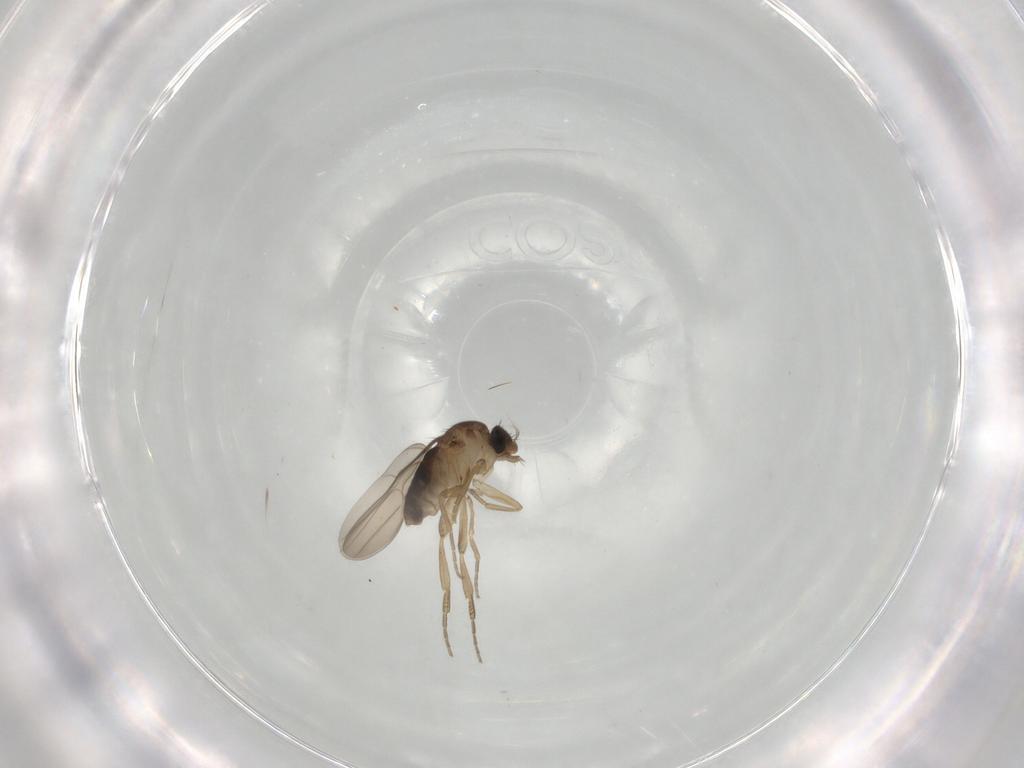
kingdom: Animalia
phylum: Arthropoda
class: Insecta
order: Diptera
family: Phoridae
